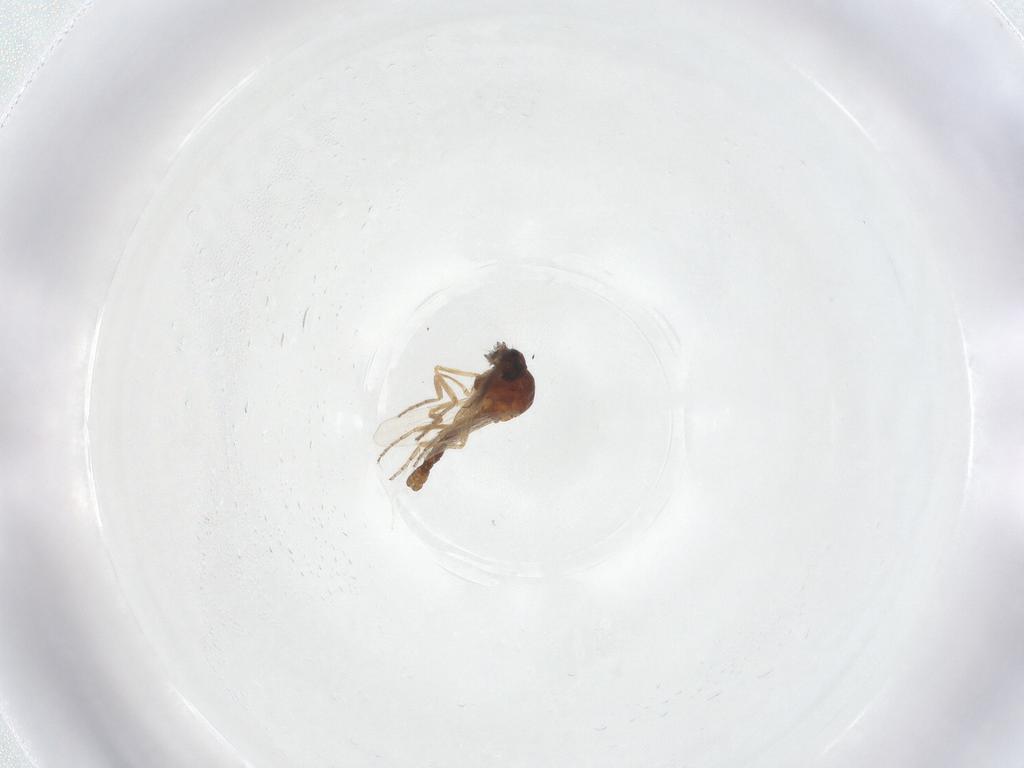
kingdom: Animalia
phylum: Arthropoda
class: Insecta
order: Diptera
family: Ceratopogonidae
